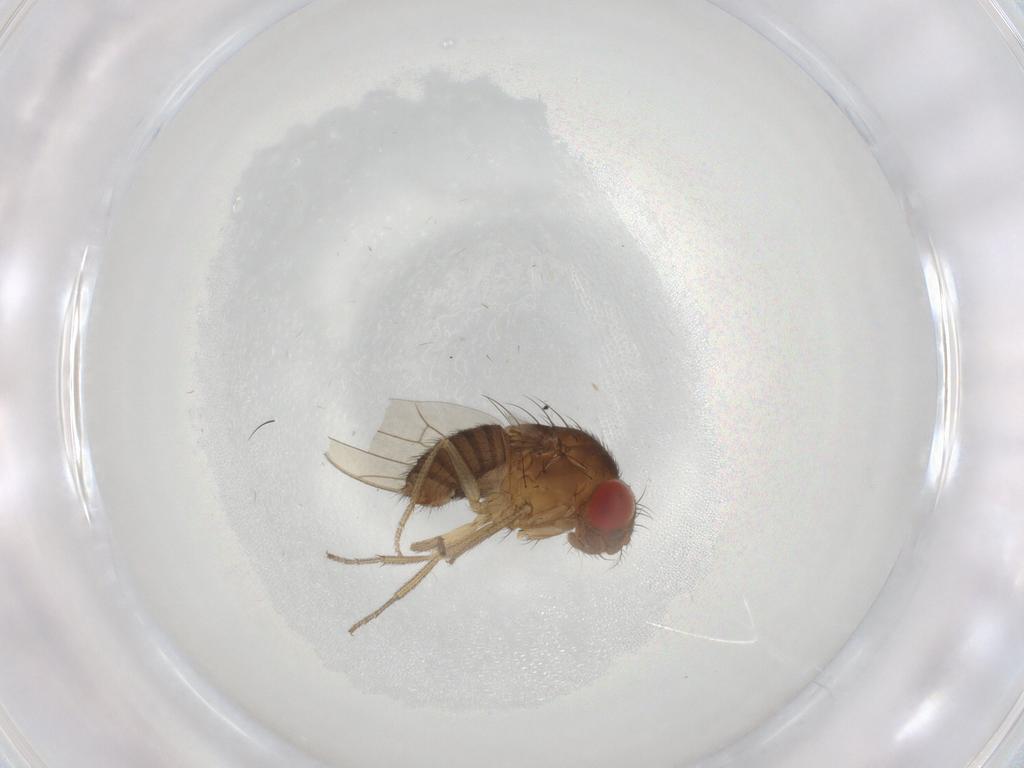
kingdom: Animalia
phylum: Arthropoda
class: Insecta
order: Diptera
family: Drosophilidae
